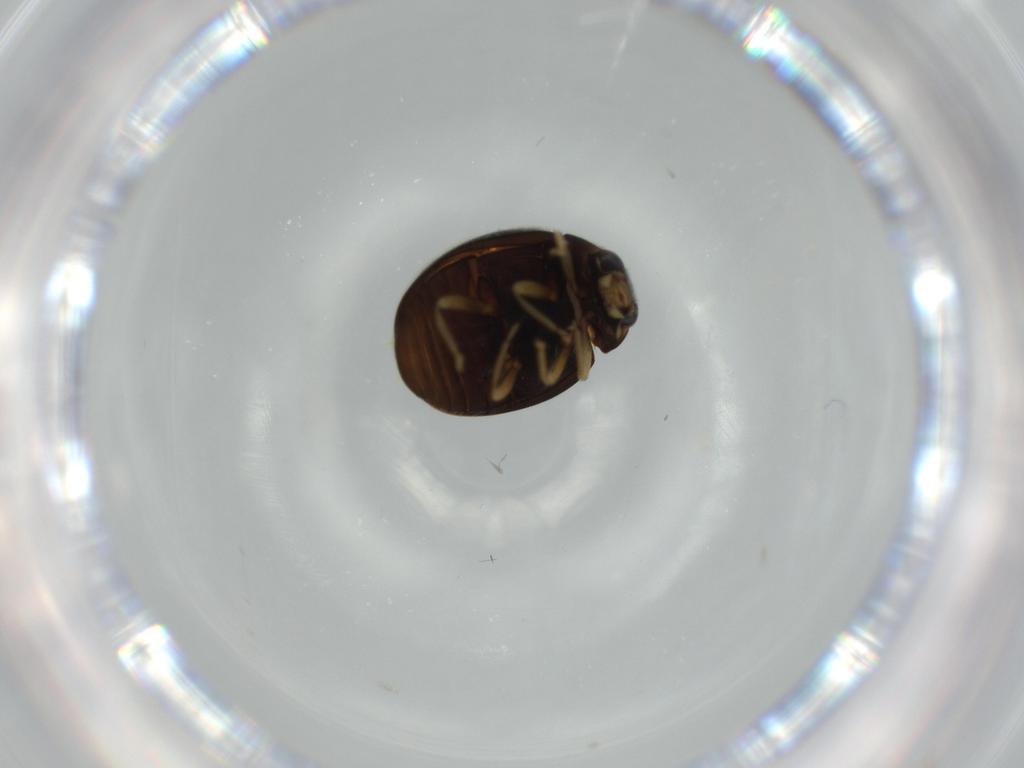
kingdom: Animalia
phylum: Arthropoda
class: Insecta
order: Coleoptera
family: Coccinellidae
